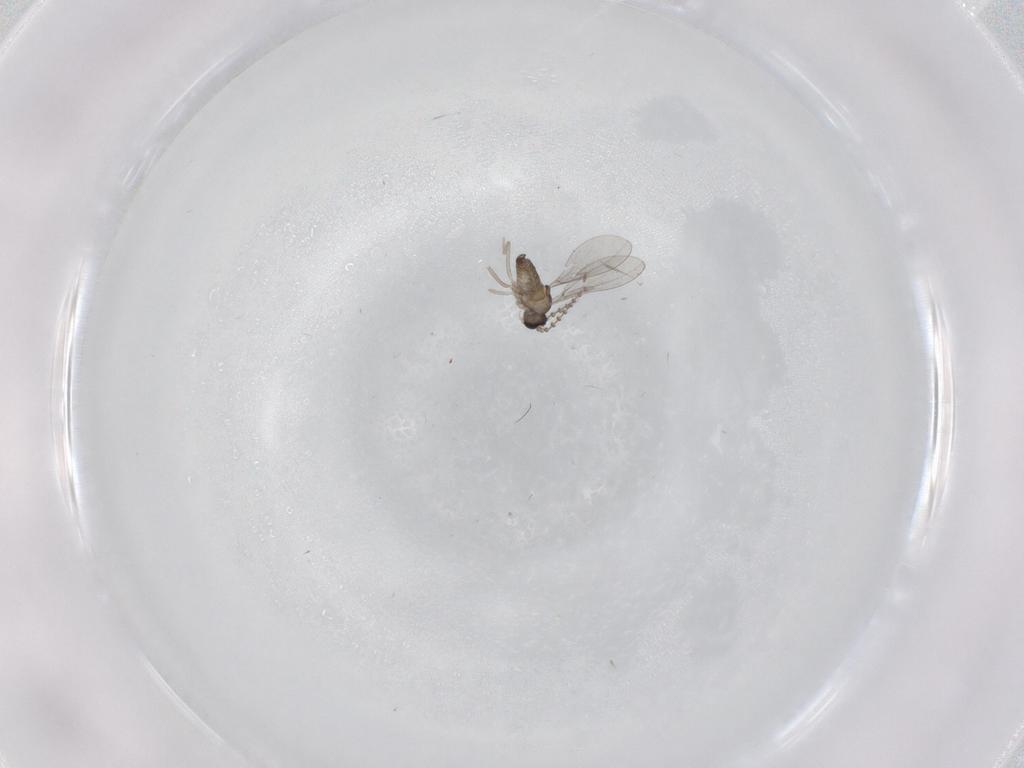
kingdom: Animalia
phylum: Arthropoda
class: Insecta
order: Diptera
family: Cecidomyiidae
